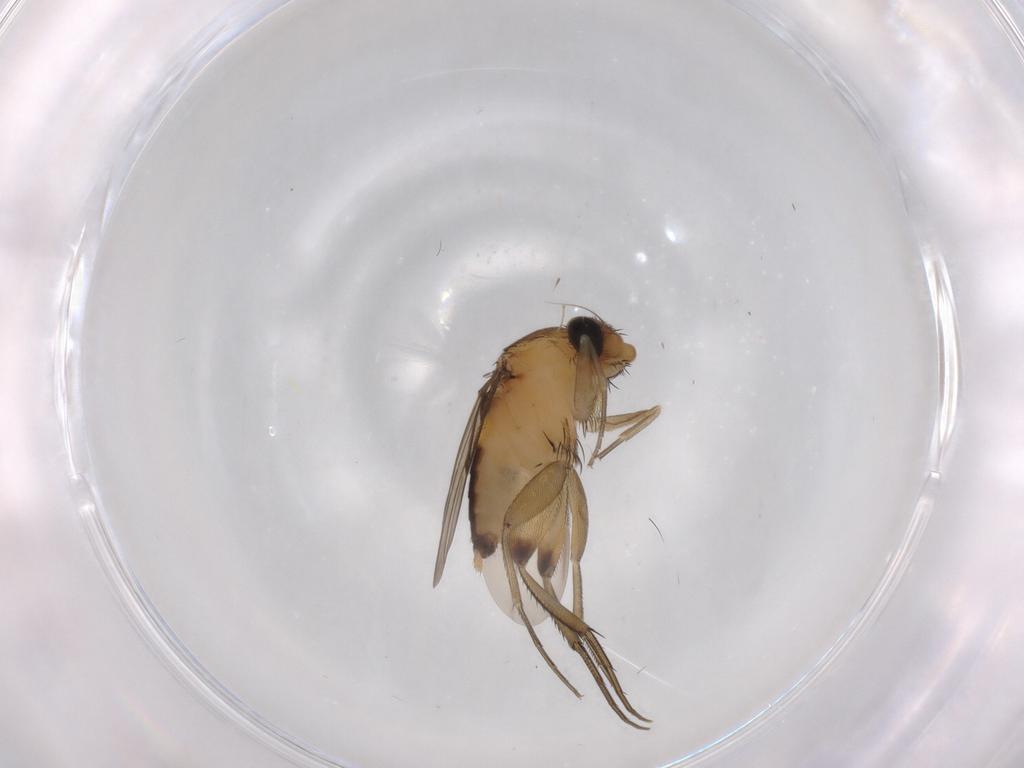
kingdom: Animalia
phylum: Arthropoda
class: Insecta
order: Diptera
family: Phoridae
